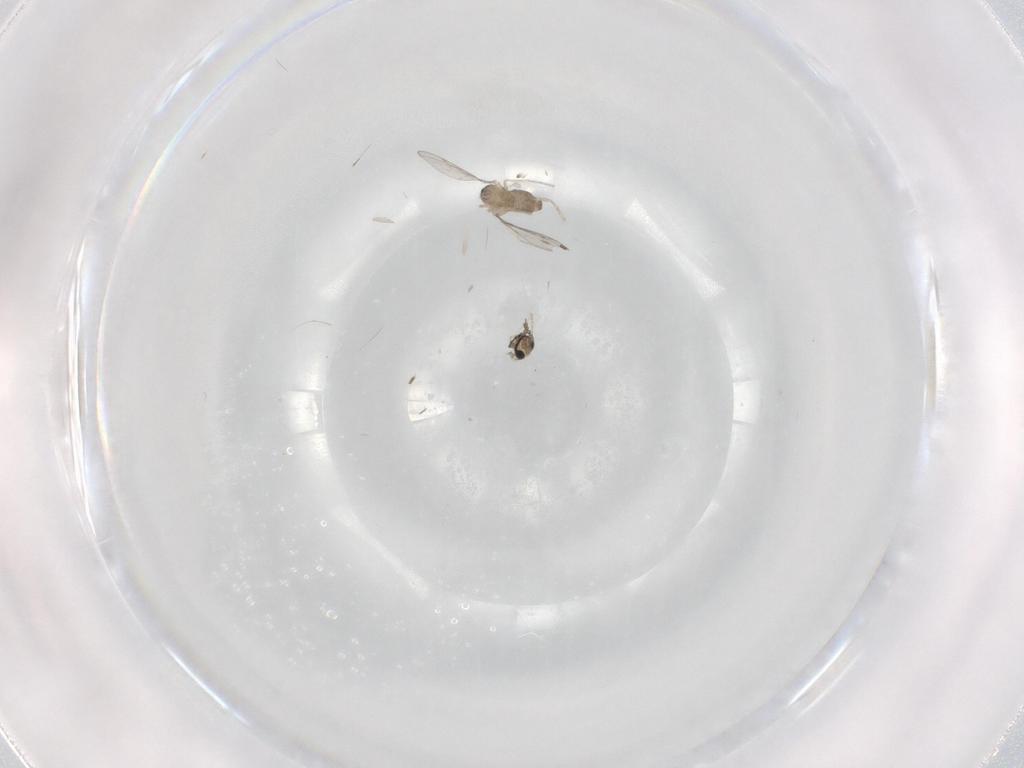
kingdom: Animalia
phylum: Arthropoda
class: Insecta
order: Diptera
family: Cecidomyiidae
